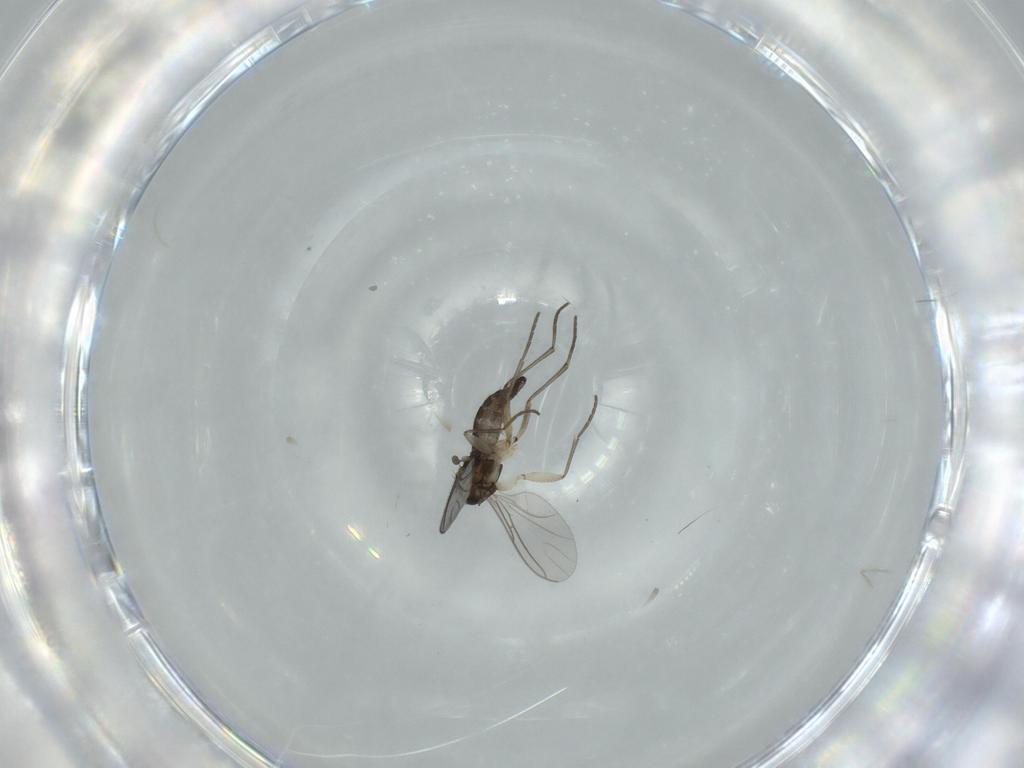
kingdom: Animalia
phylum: Arthropoda
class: Insecta
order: Diptera
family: Sciaridae
